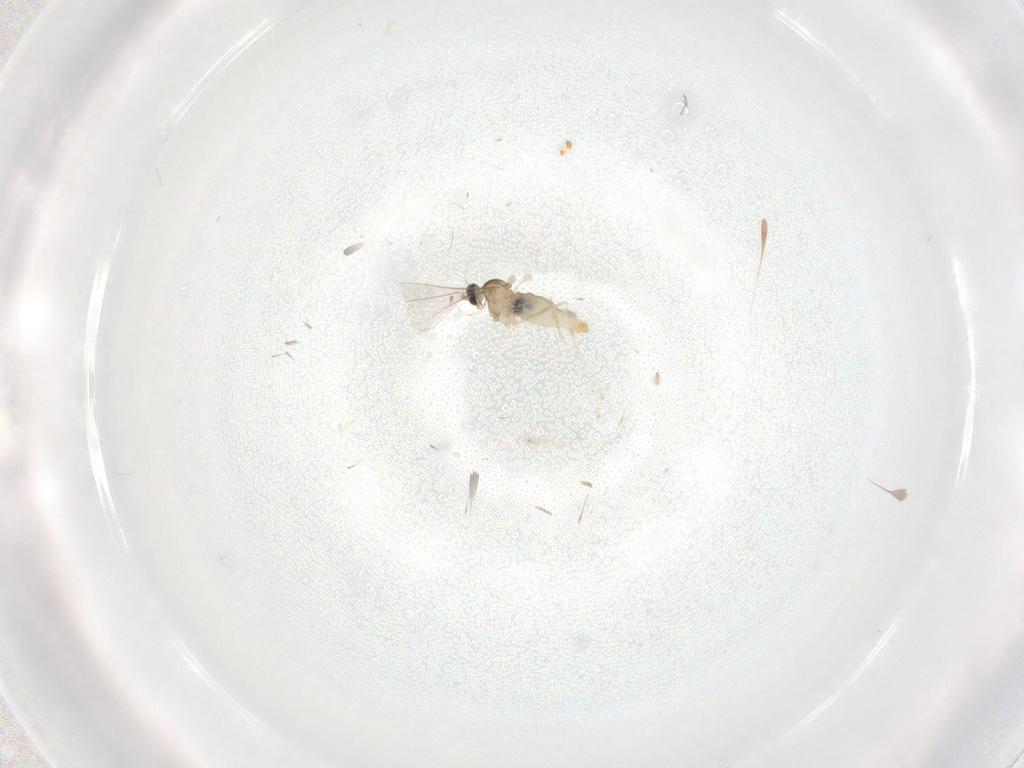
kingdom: Animalia
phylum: Arthropoda
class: Insecta
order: Diptera
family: Cecidomyiidae
